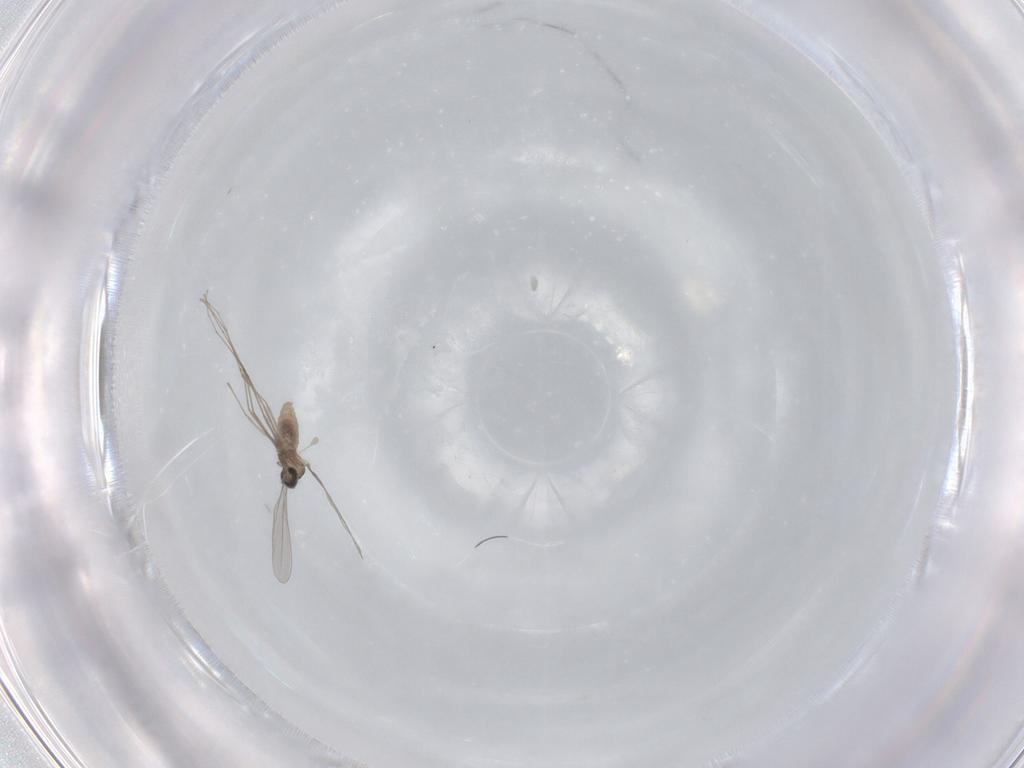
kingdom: Animalia
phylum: Arthropoda
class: Insecta
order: Diptera
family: Cecidomyiidae
